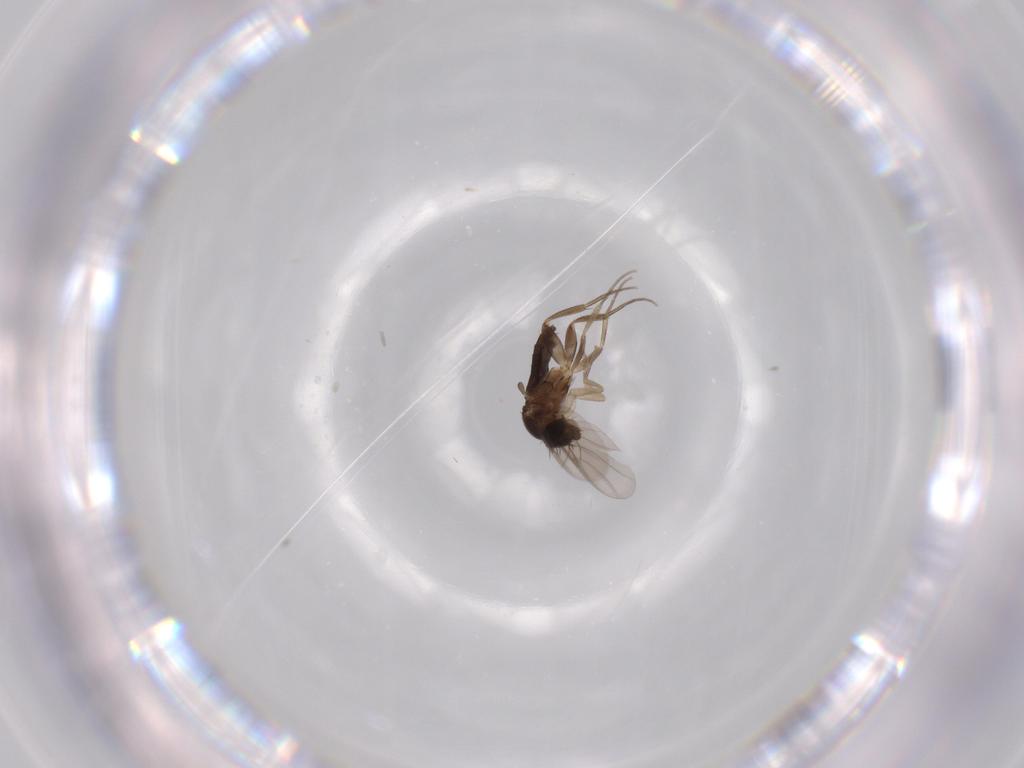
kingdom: Animalia
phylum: Arthropoda
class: Insecta
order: Diptera
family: Phoridae
